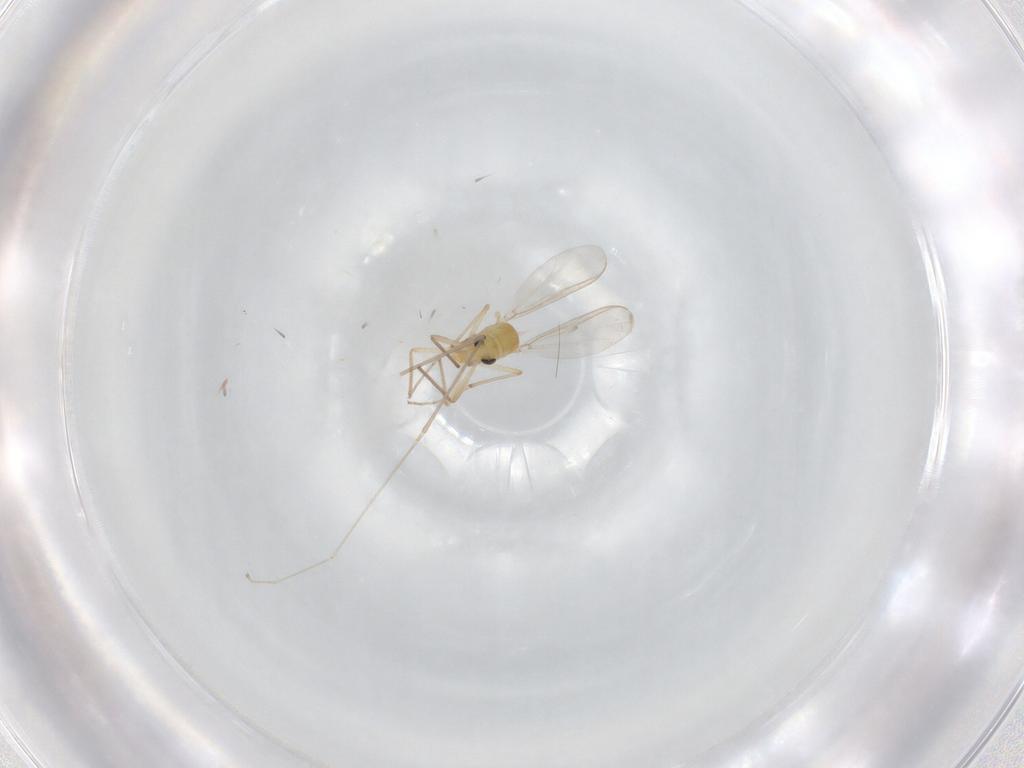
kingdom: Animalia
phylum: Arthropoda
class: Insecta
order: Diptera
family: Chironomidae
